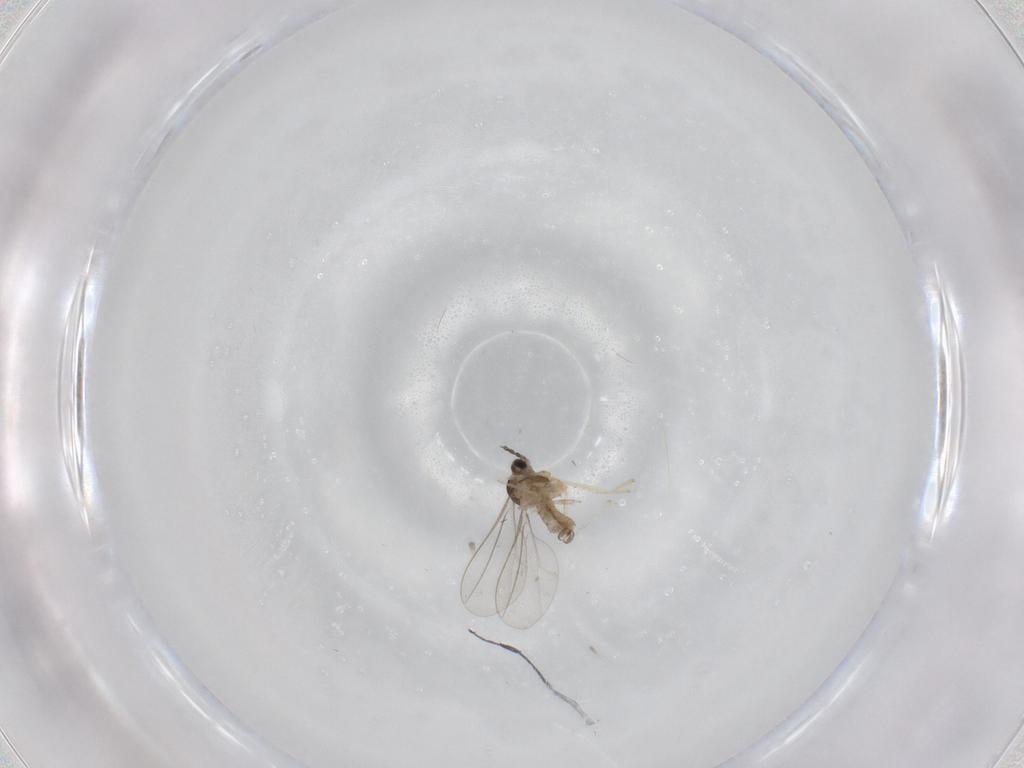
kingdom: Animalia
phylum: Arthropoda
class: Insecta
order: Diptera
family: Cecidomyiidae
